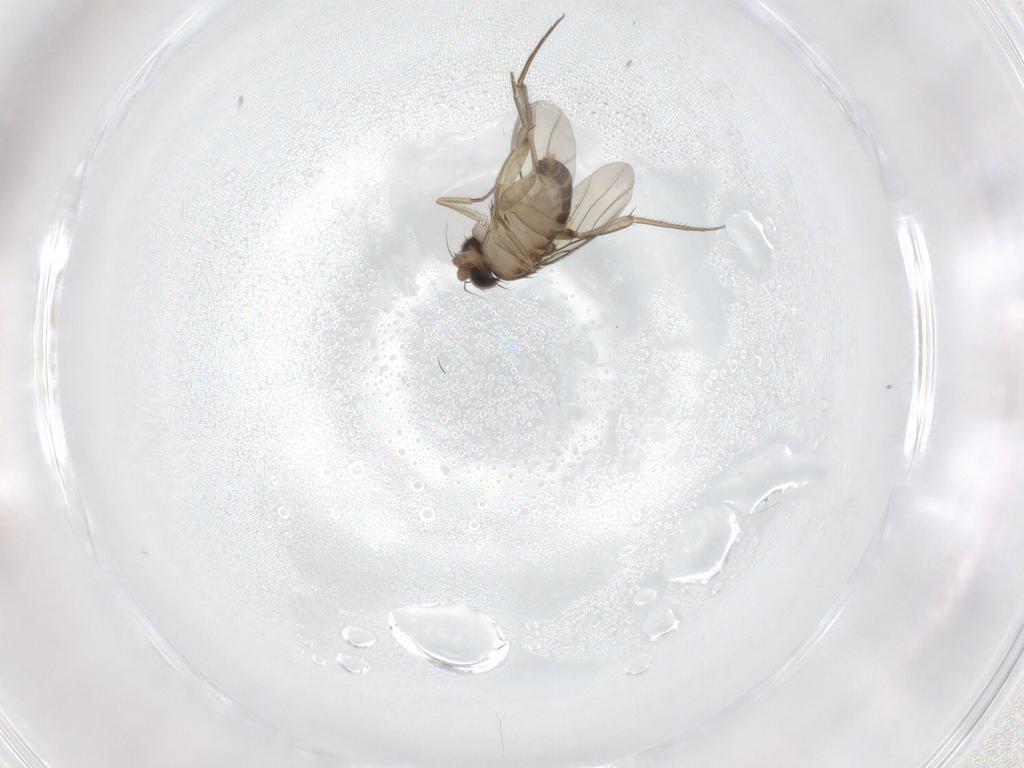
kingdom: Animalia
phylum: Arthropoda
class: Insecta
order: Diptera
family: Phoridae
